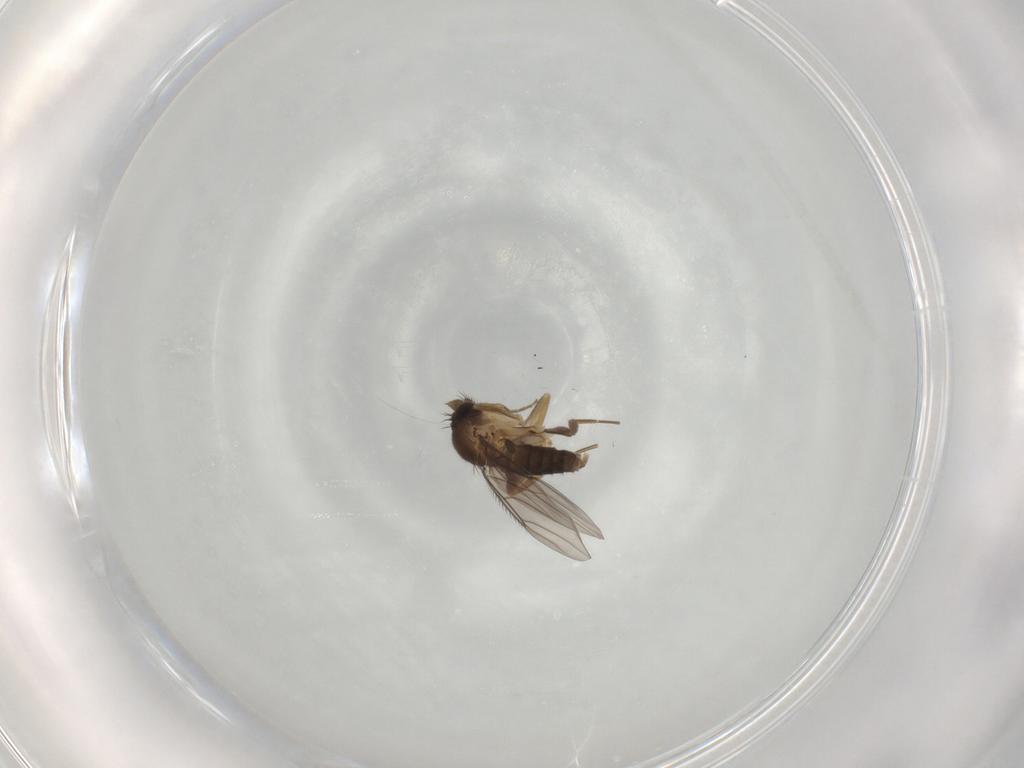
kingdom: Animalia
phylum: Arthropoda
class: Insecta
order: Diptera
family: Phoridae
